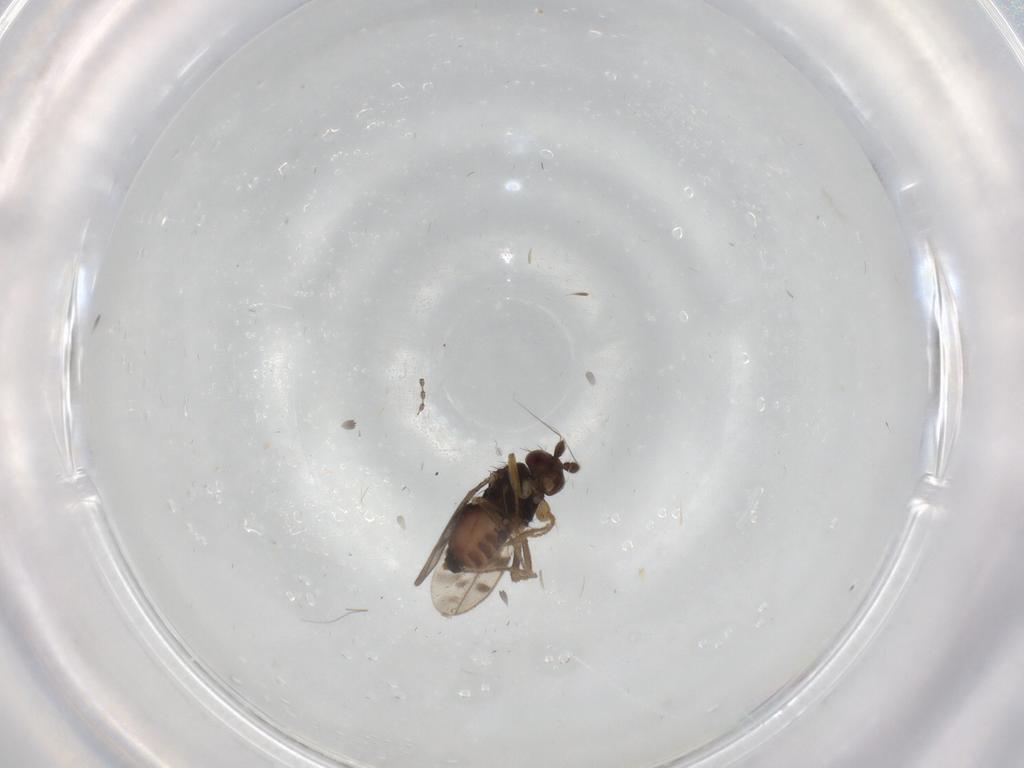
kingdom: Animalia
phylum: Arthropoda
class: Insecta
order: Diptera
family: Sphaeroceridae
